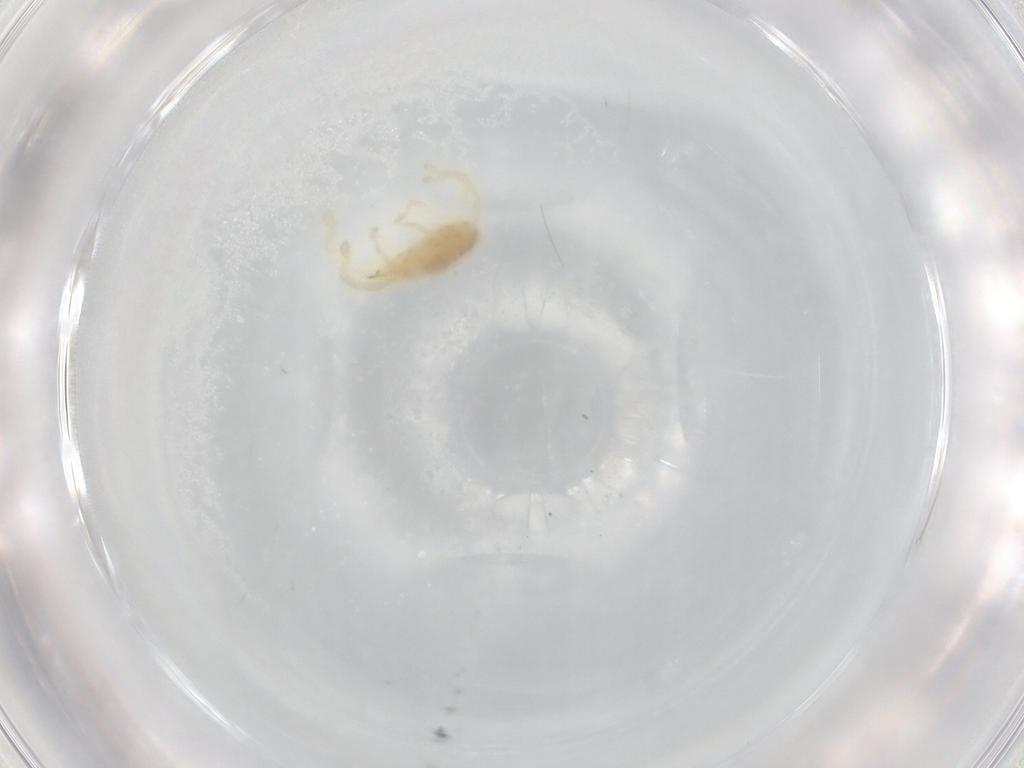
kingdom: Animalia
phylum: Arthropoda
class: Arachnida
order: Trombidiformes
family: Erythraeidae
